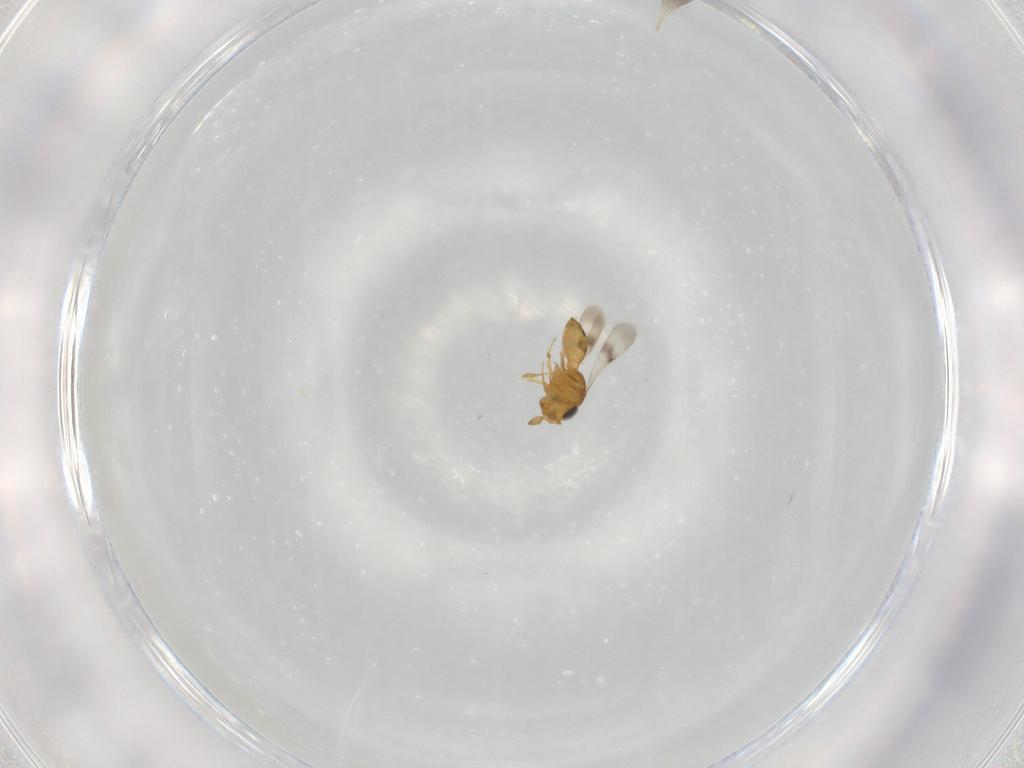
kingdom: Animalia
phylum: Arthropoda
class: Insecta
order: Hymenoptera
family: Scelionidae
